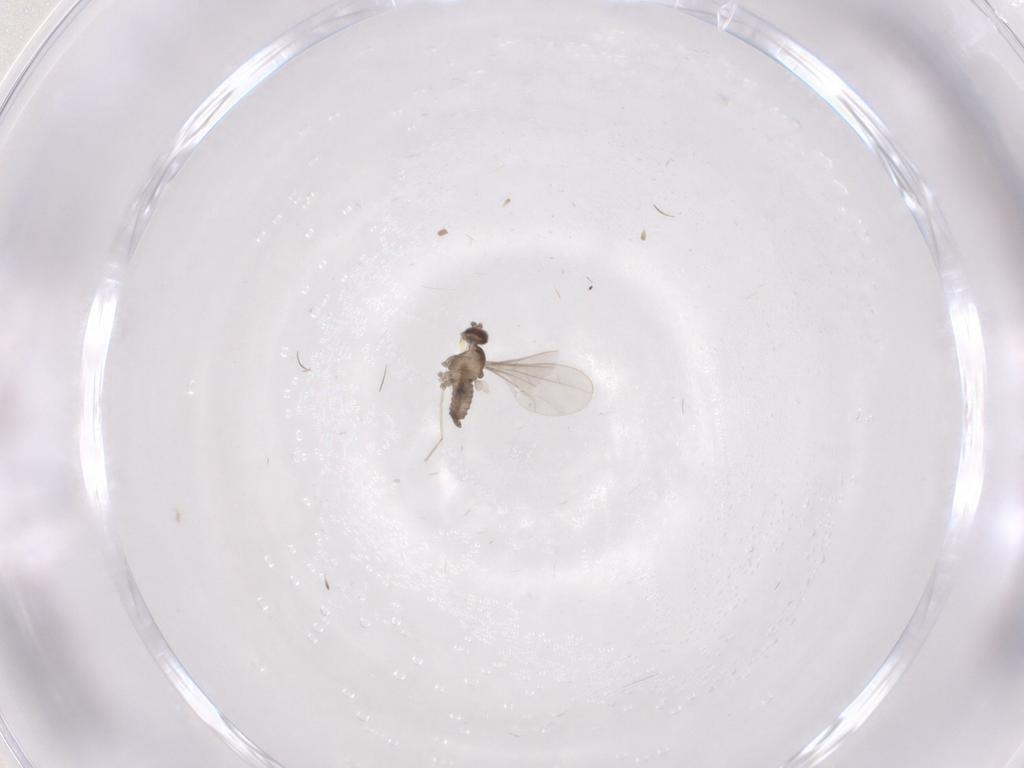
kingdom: Animalia
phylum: Arthropoda
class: Insecta
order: Diptera
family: Cecidomyiidae
